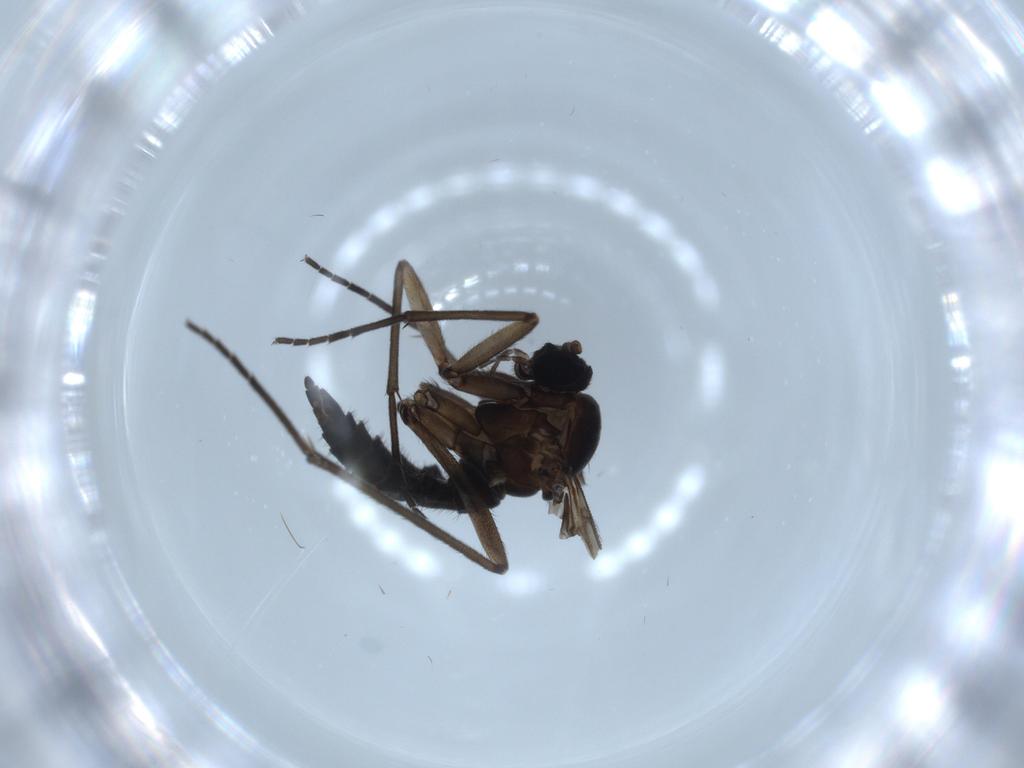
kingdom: Animalia
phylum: Arthropoda
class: Insecta
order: Diptera
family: Sciaridae
